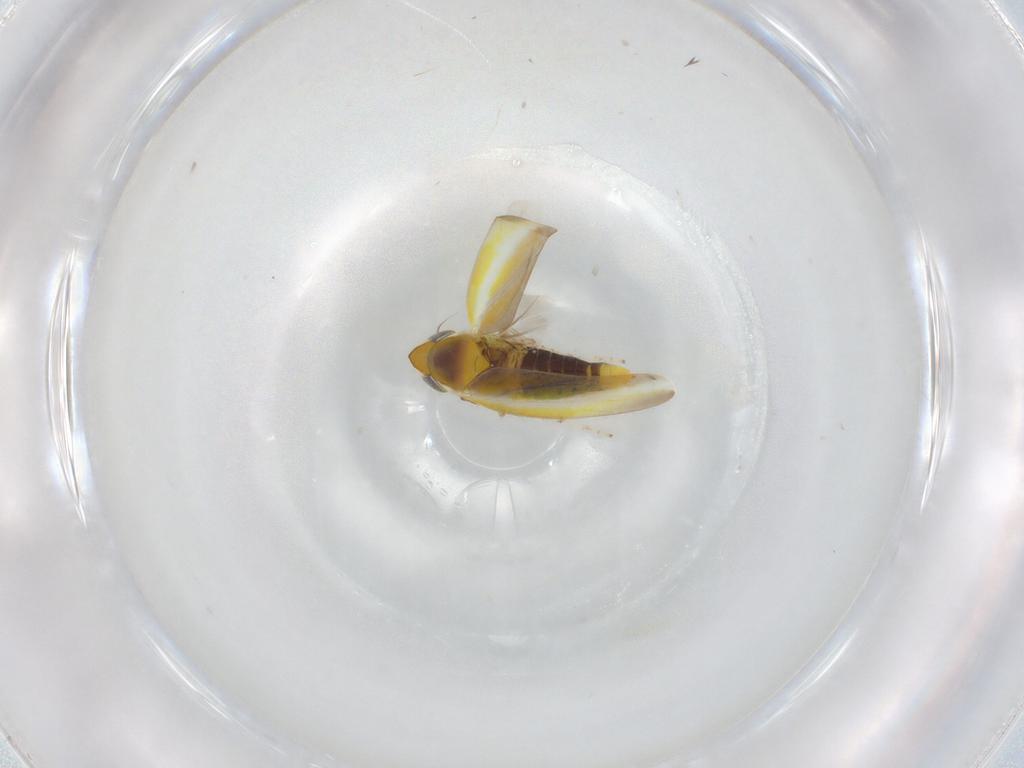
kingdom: Animalia
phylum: Arthropoda
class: Insecta
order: Hemiptera
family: Cicadellidae
